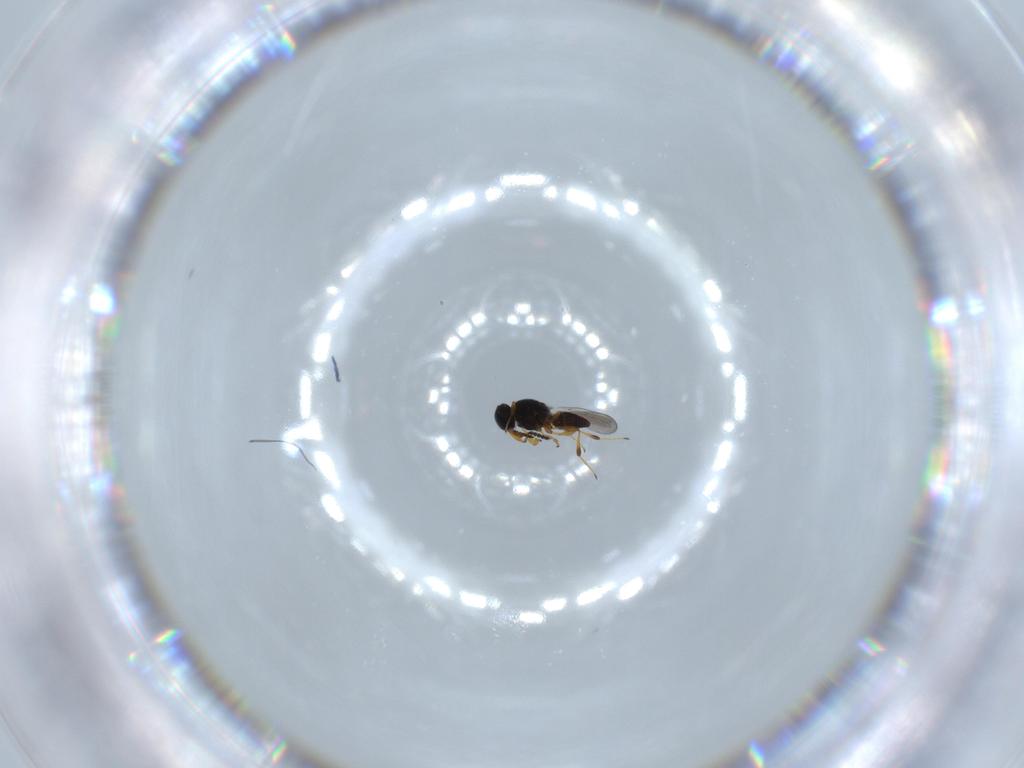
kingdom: Animalia
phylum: Arthropoda
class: Insecta
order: Hymenoptera
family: Platygastridae
